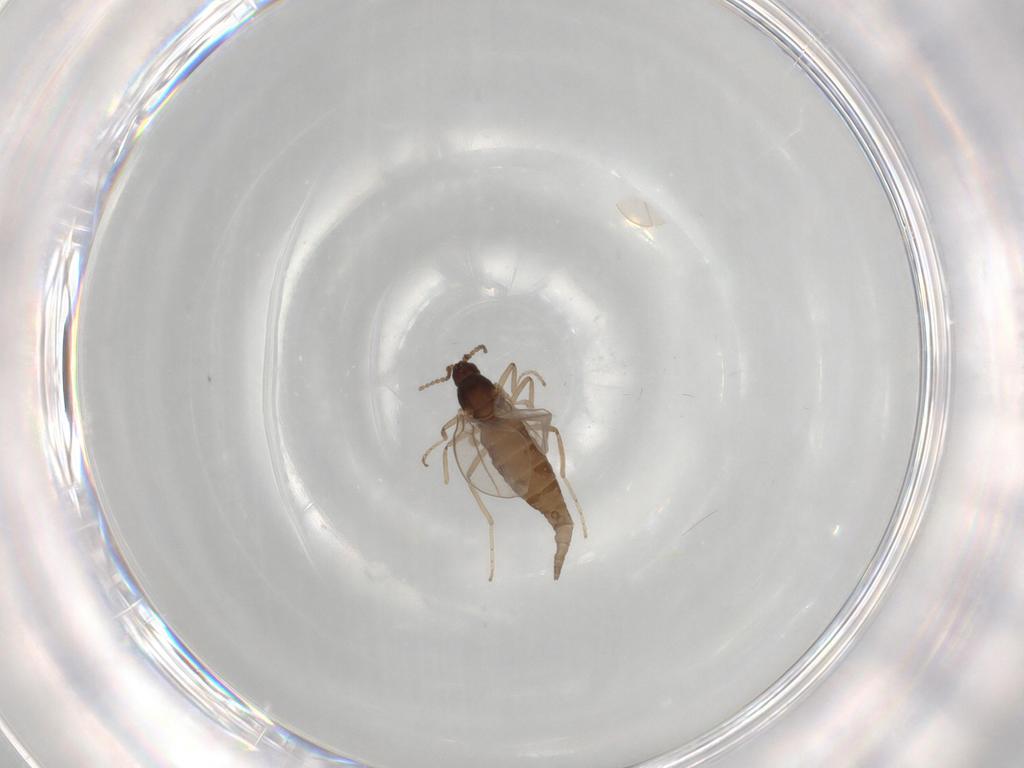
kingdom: Animalia
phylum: Arthropoda
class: Insecta
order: Diptera
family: Cecidomyiidae
